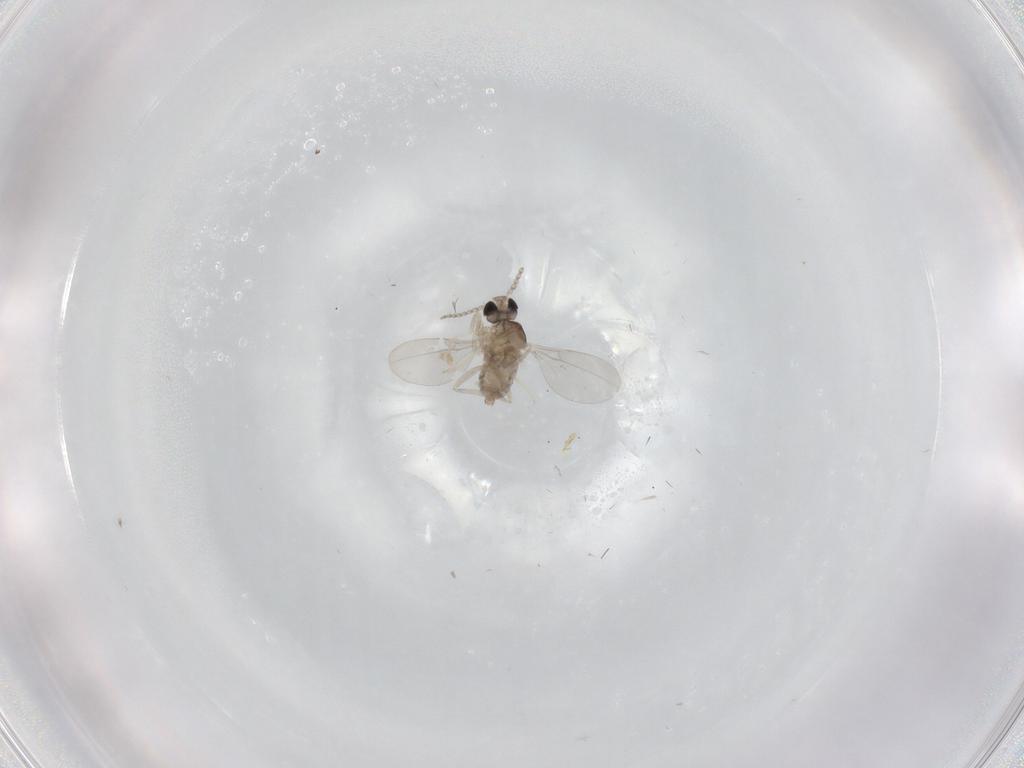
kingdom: Animalia
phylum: Arthropoda
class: Insecta
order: Diptera
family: Cecidomyiidae
